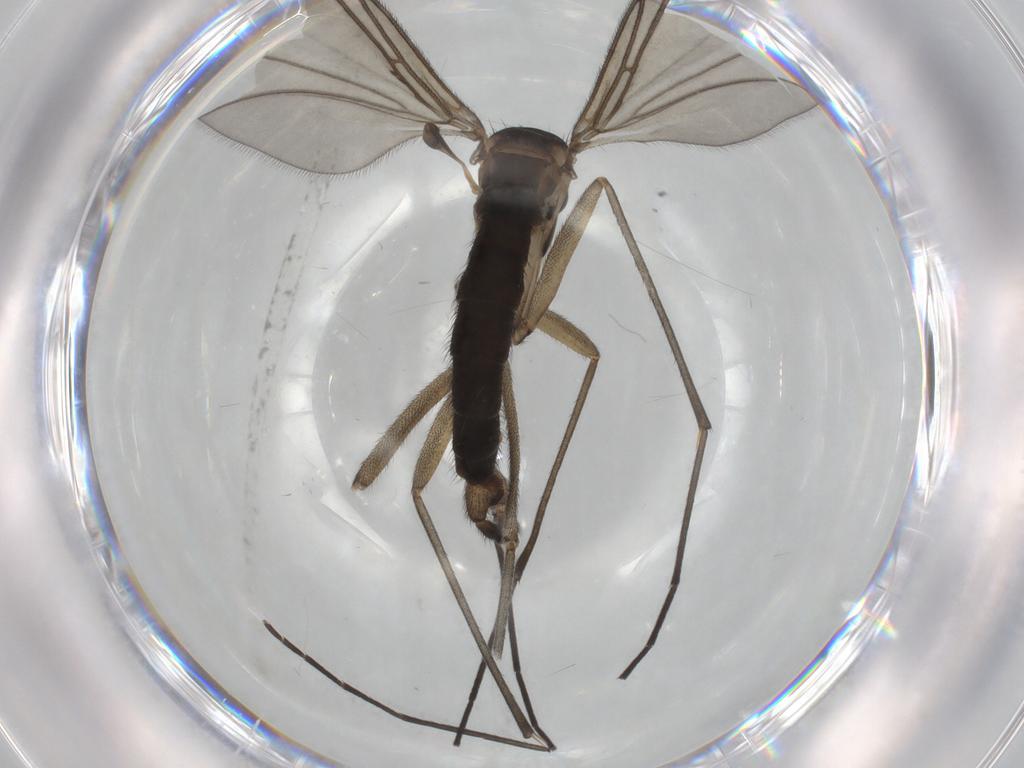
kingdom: Animalia
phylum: Arthropoda
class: Insecta
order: Diptera
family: Sciaridae
